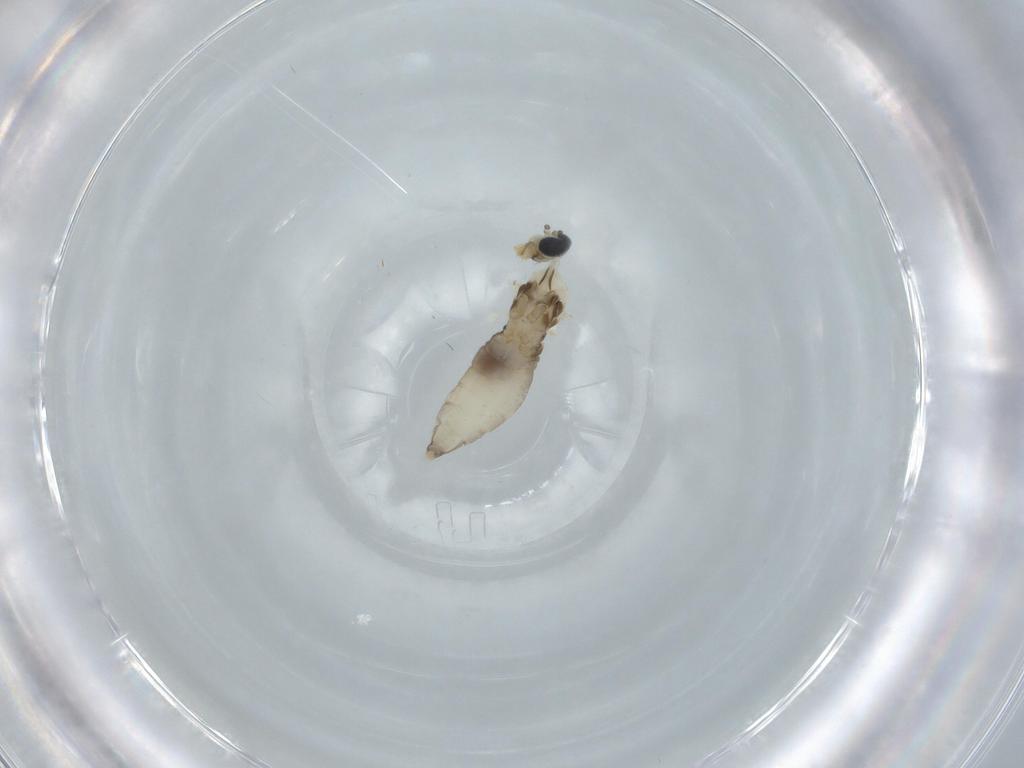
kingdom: Animalia
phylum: Arthropoda
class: Insecta
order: Diptera
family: Cecidomyiidae
